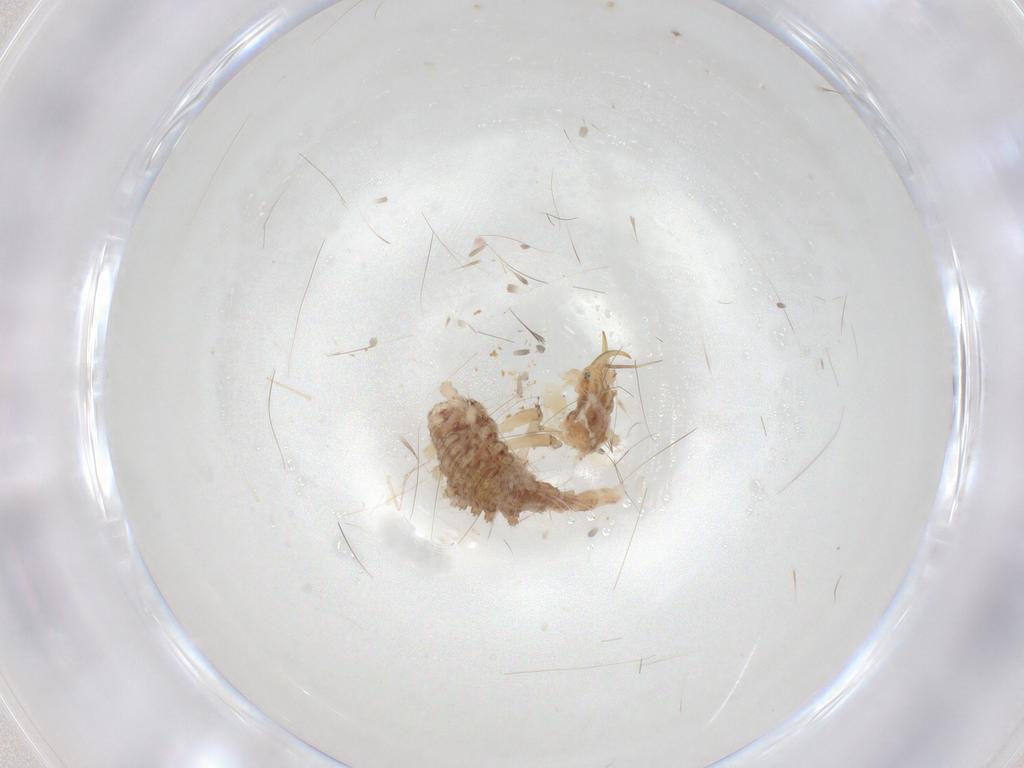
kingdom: Animalia
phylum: Arthropoda
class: Insecta
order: Neuroptera
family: Chrysopidae
